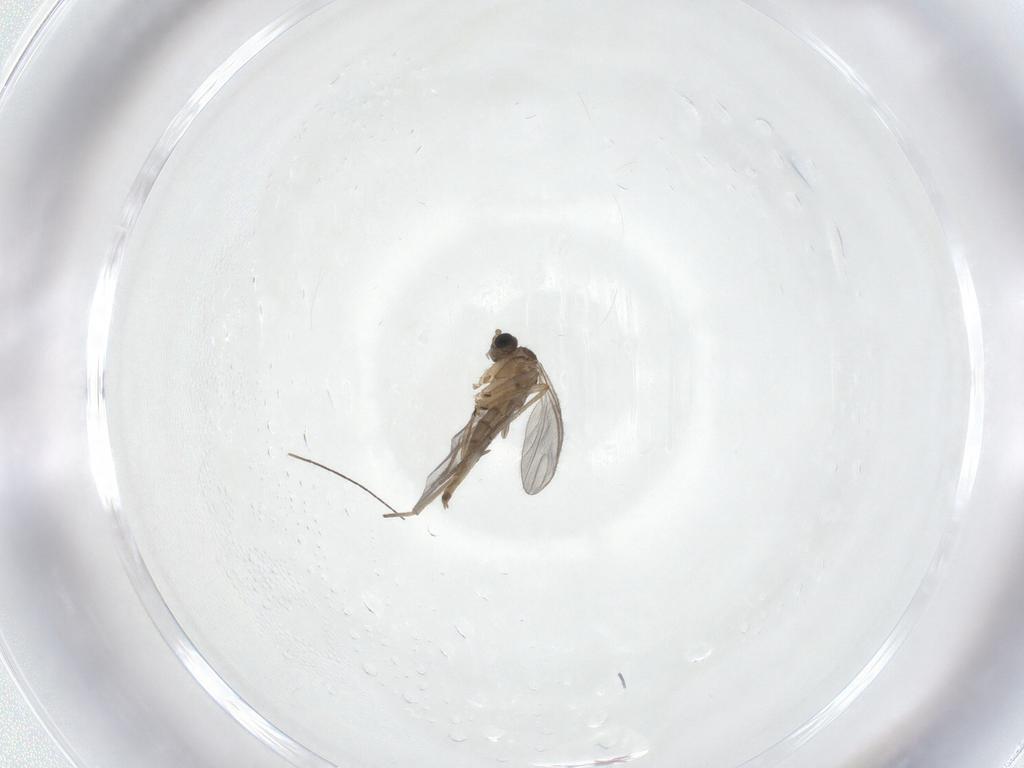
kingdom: Animalia
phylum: Arthropoda
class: Insecta
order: Diptera
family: Sciaridae
